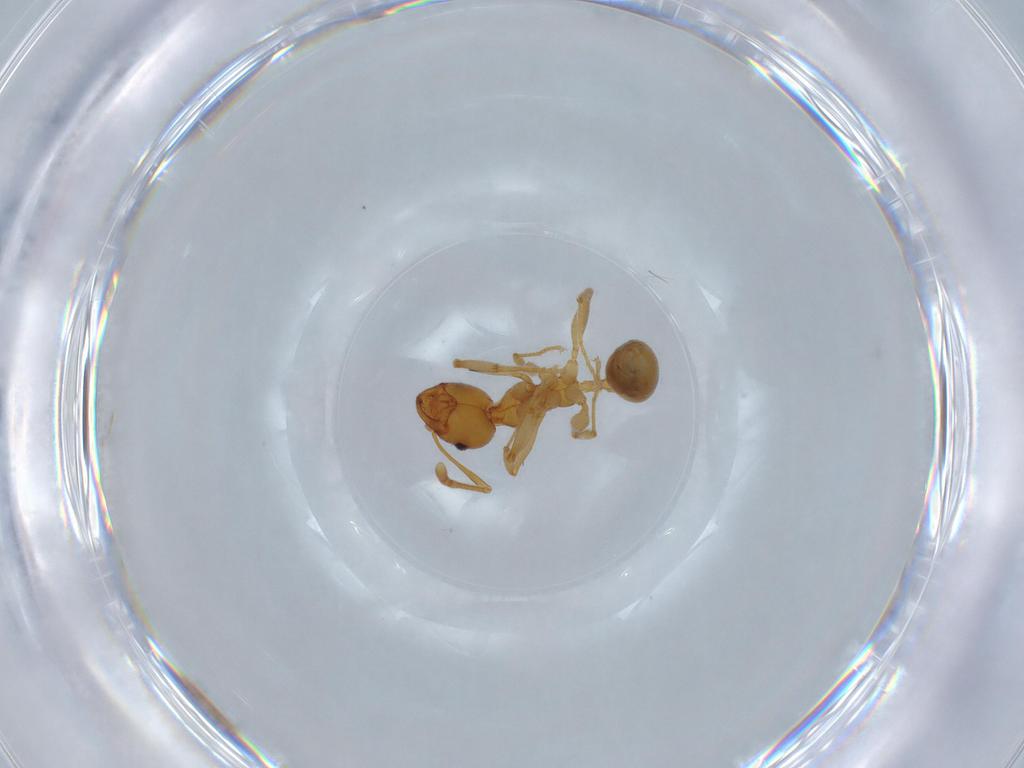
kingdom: Animalia
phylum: Arthropoda
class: Insecta
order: Hymenoptera
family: Formicidae
